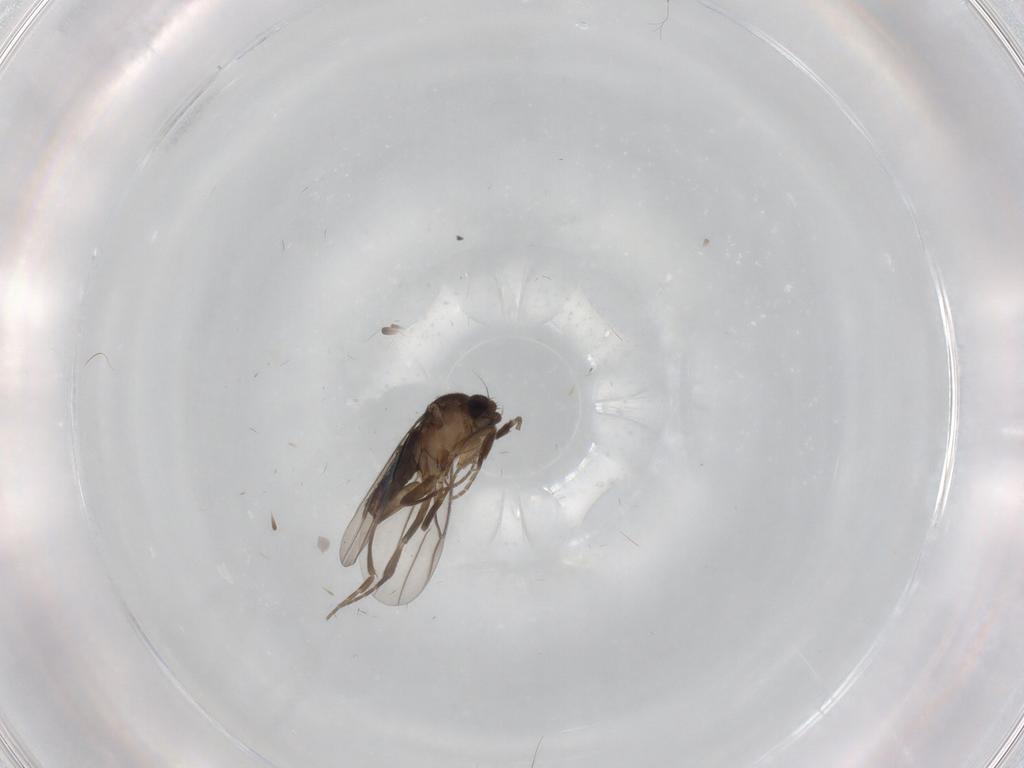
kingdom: Animalia
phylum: Arthropoda
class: Insecta
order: Diptera
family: Phoridae
